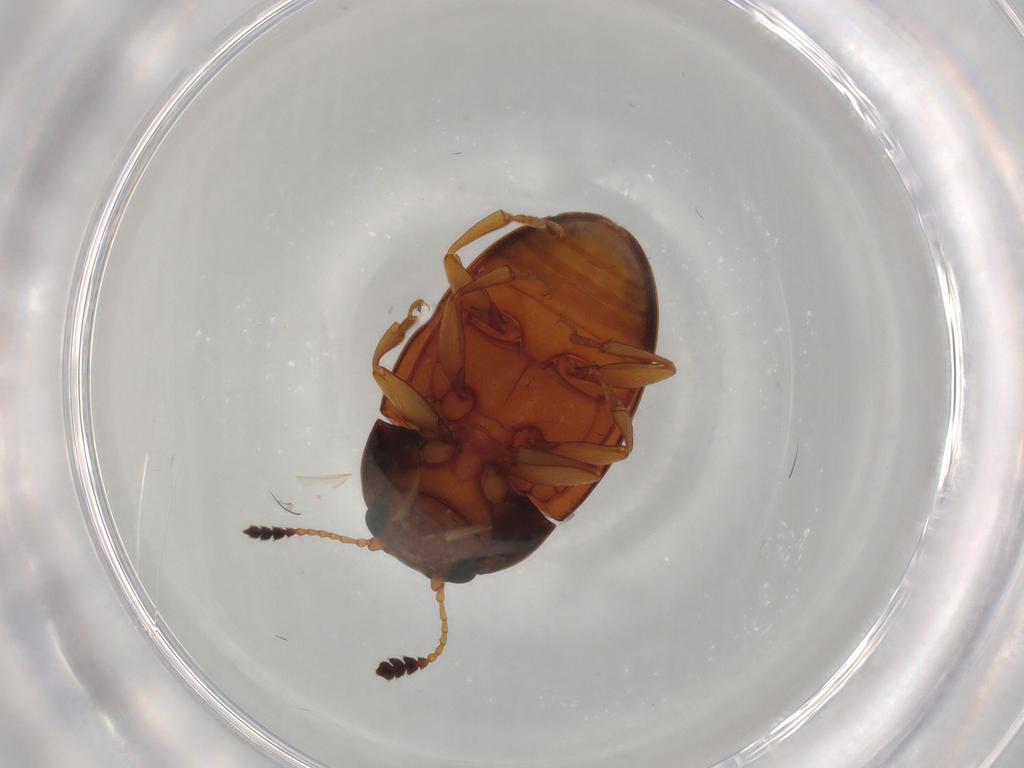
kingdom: Animalia
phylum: Arthropoda
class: Insecta
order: Coleoptera
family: Erotylidae
